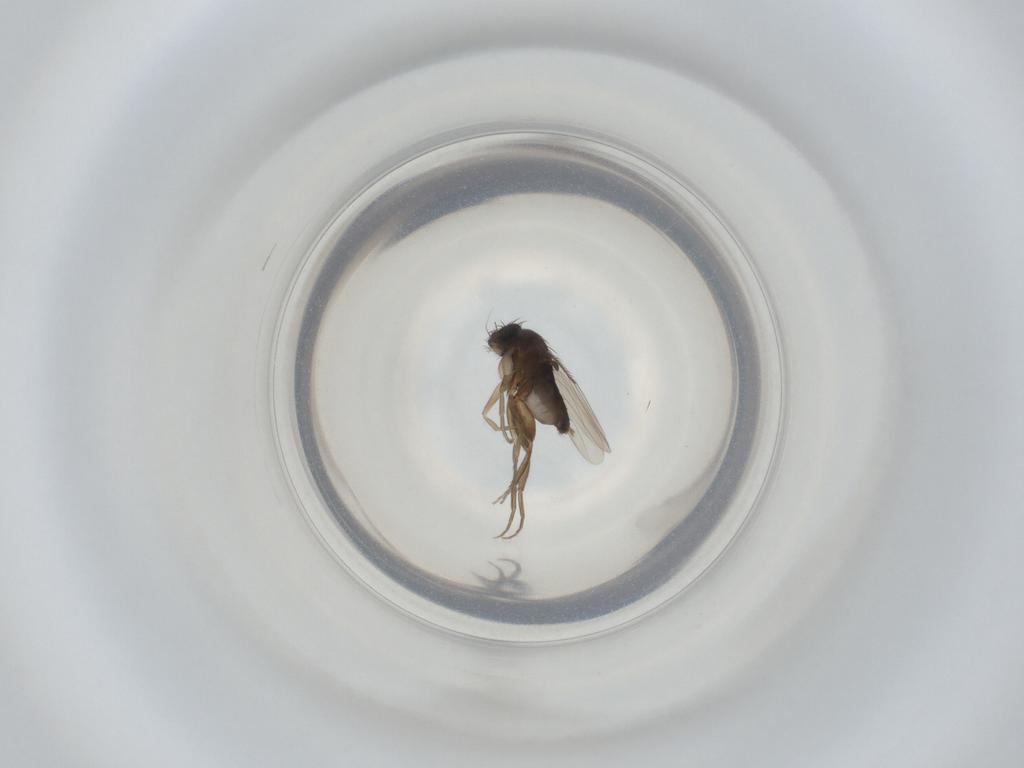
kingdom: Animalia
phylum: Arthropoda
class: Insecta
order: Diptera
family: Phoridae
